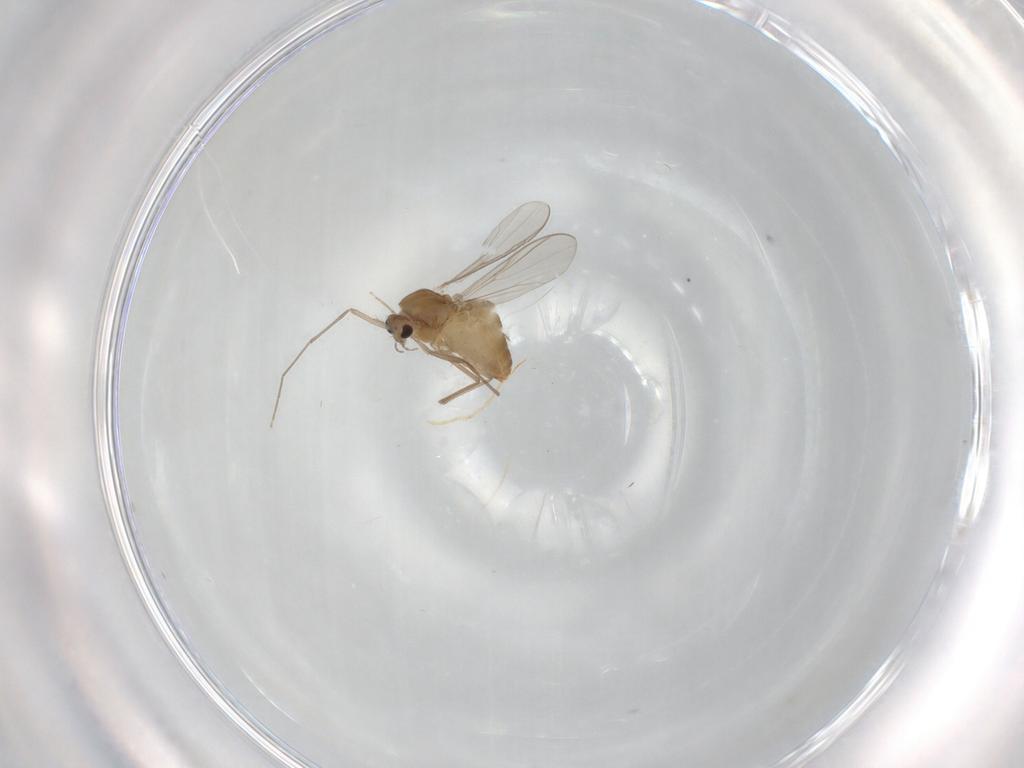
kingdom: Animalia
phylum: Arthropoda
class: Insecta
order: Diptera
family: Chironomidae
